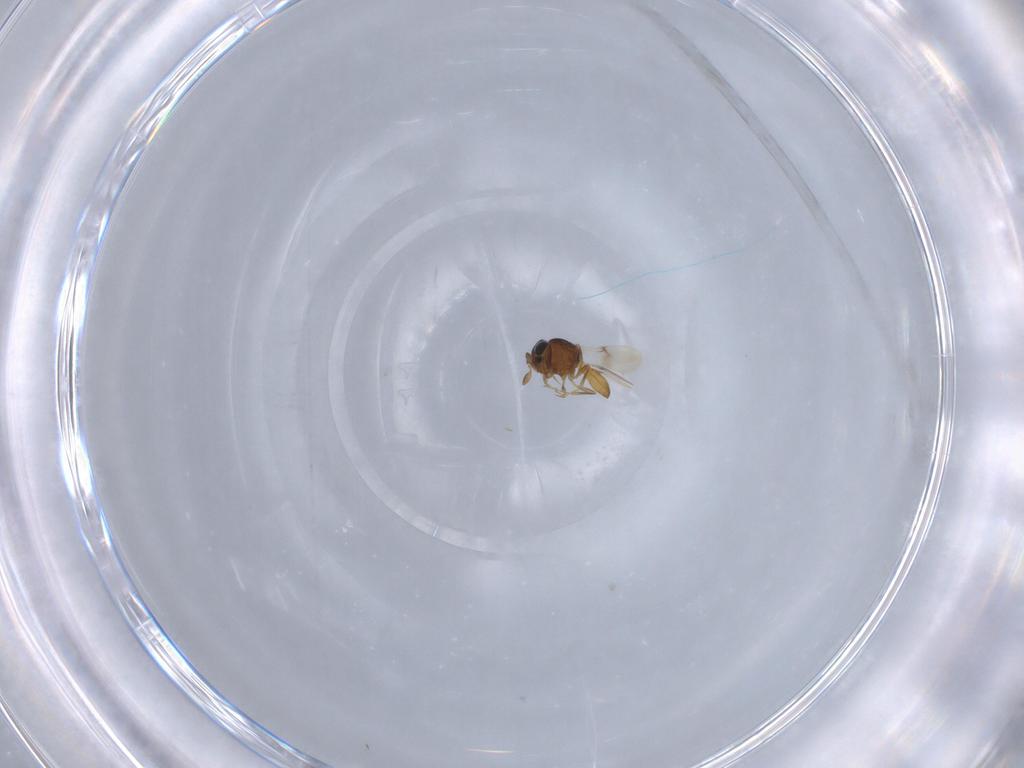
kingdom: Animalia
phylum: Arthropoda
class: Insecta
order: Hymenoptera
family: Scelionidae
